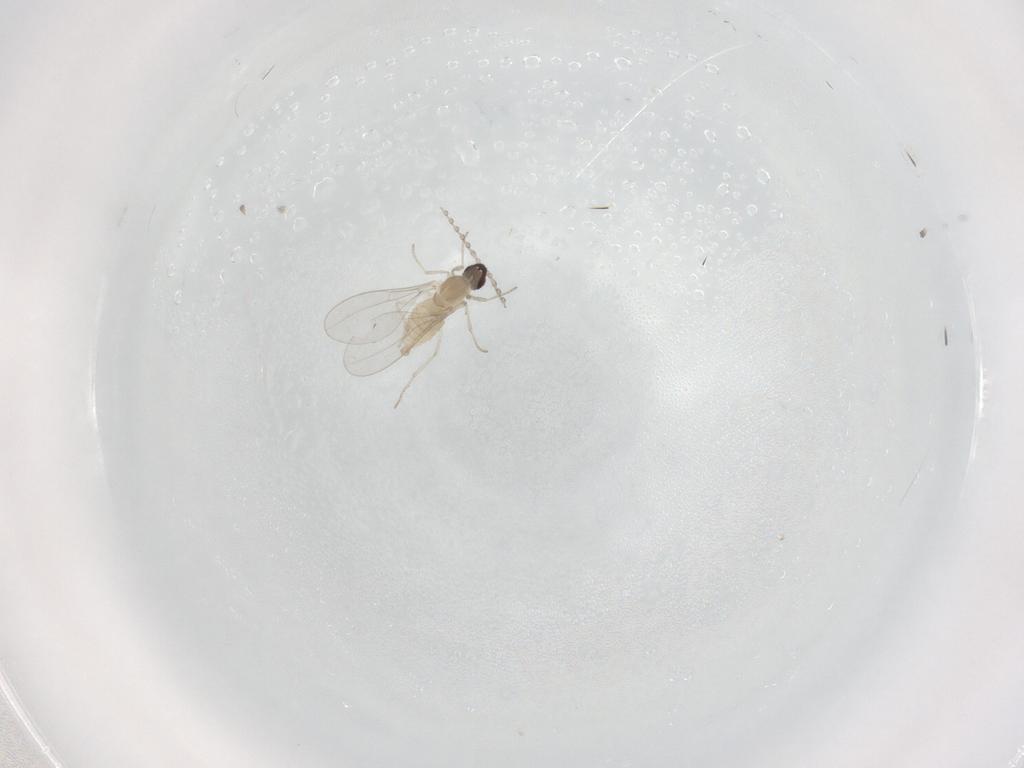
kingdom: Animalia
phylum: Arthropoda
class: Insecta
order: Diptera
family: Cecidomyiidae
